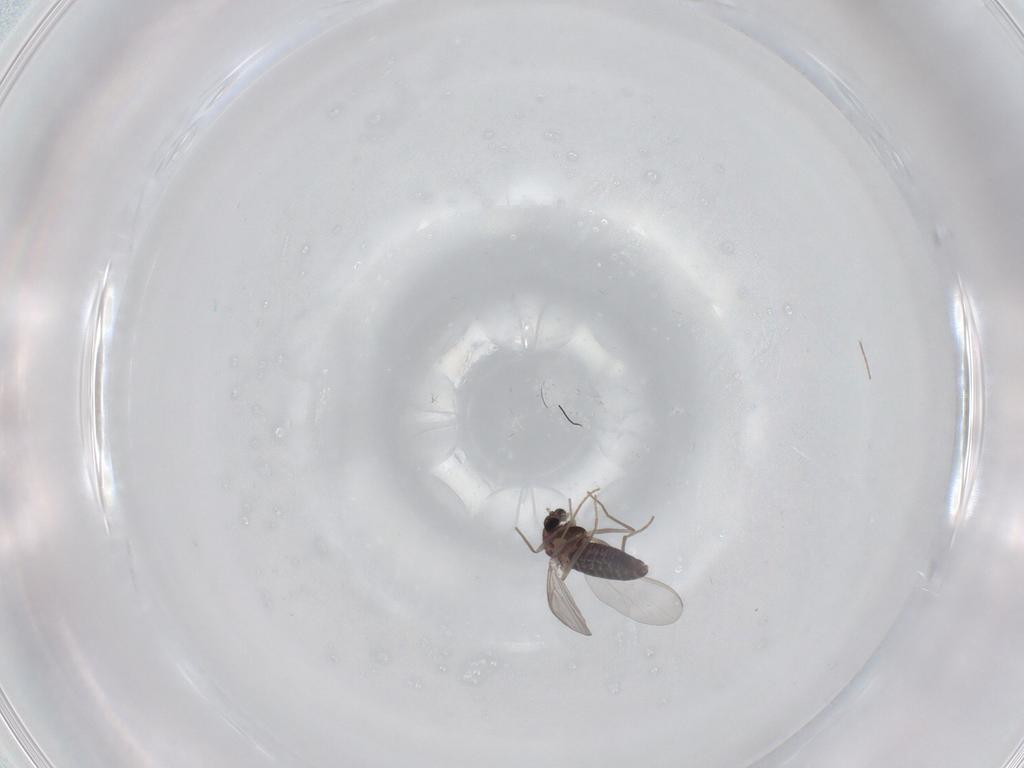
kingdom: Animalia
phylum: Arthropoda
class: Insecta
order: Diptera
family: Chironomidae
